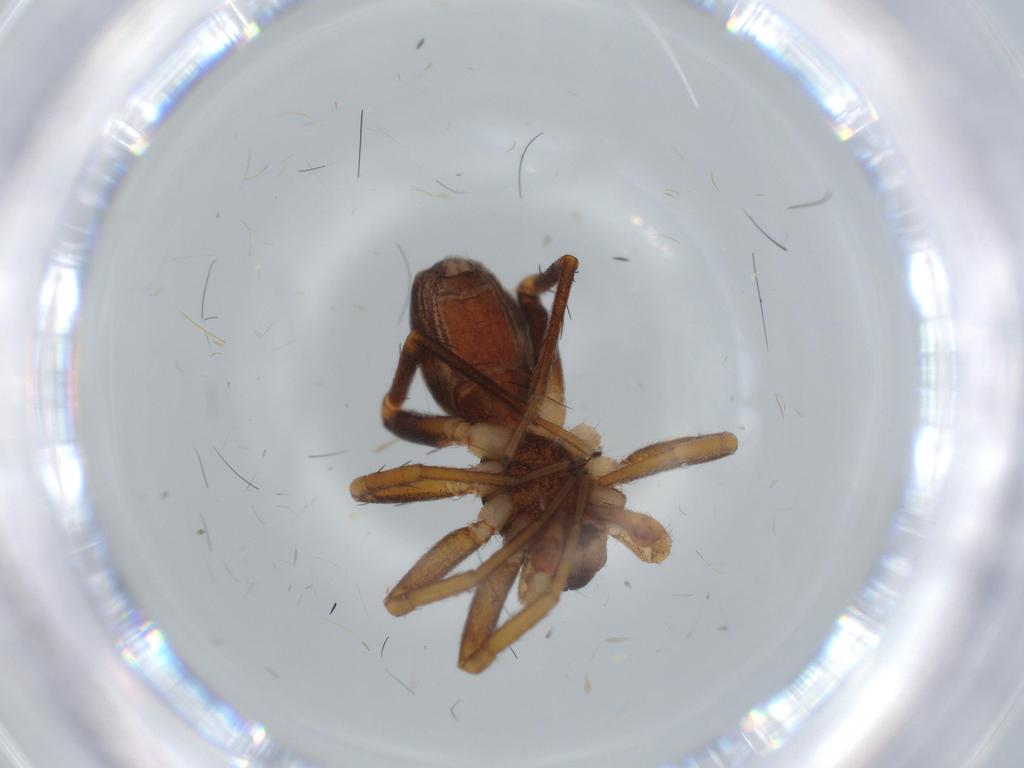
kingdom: Animalia
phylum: Arthropoda
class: Arachnida
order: Araneae
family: Corinnidae
